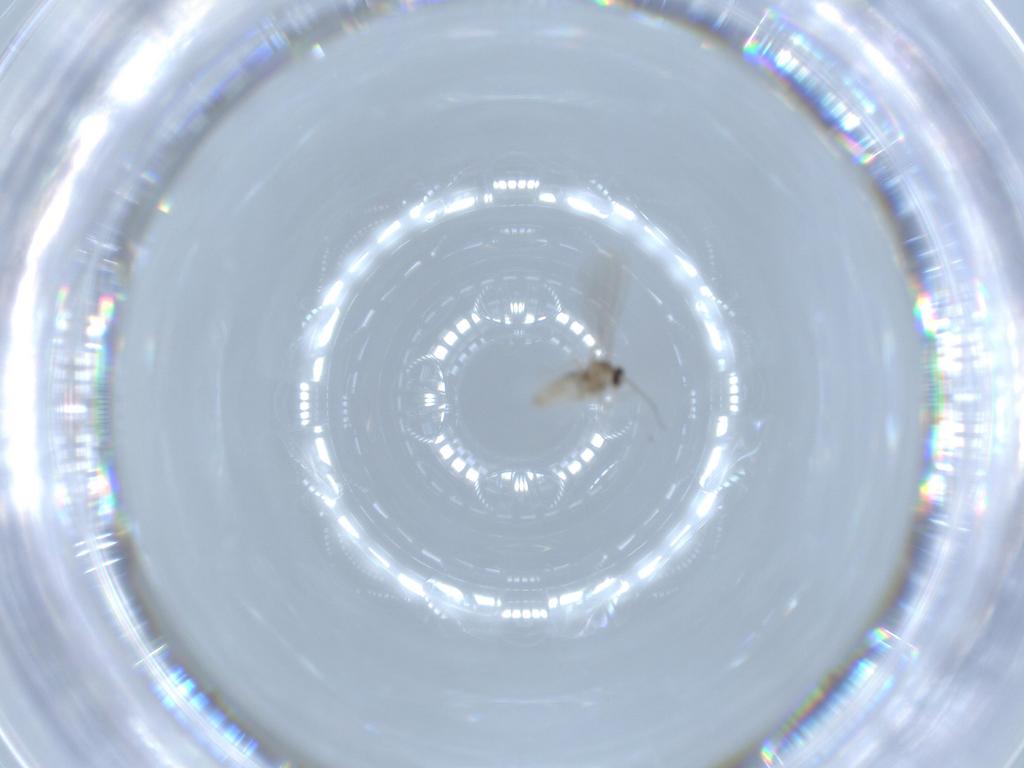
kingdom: Animalia
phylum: Arthropoda
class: Insecta
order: Diptera
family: Cecidomyiidae
